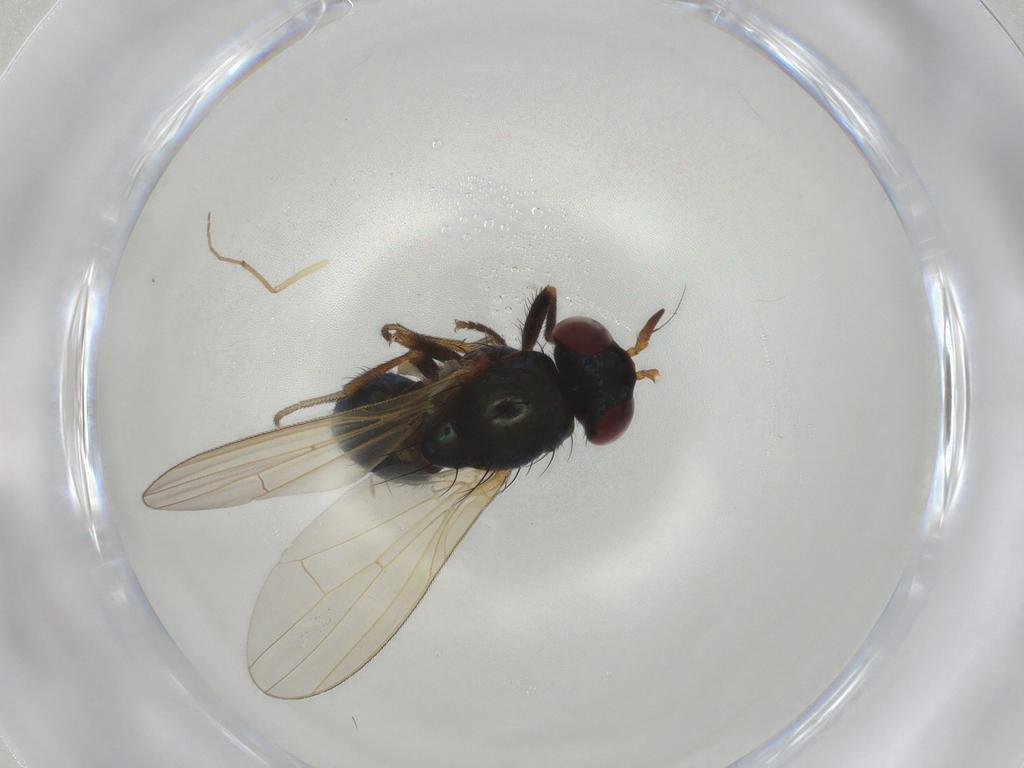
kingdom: Animalia
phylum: Arthropoda
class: Insecta
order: Diptera
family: Lauxaniidae
